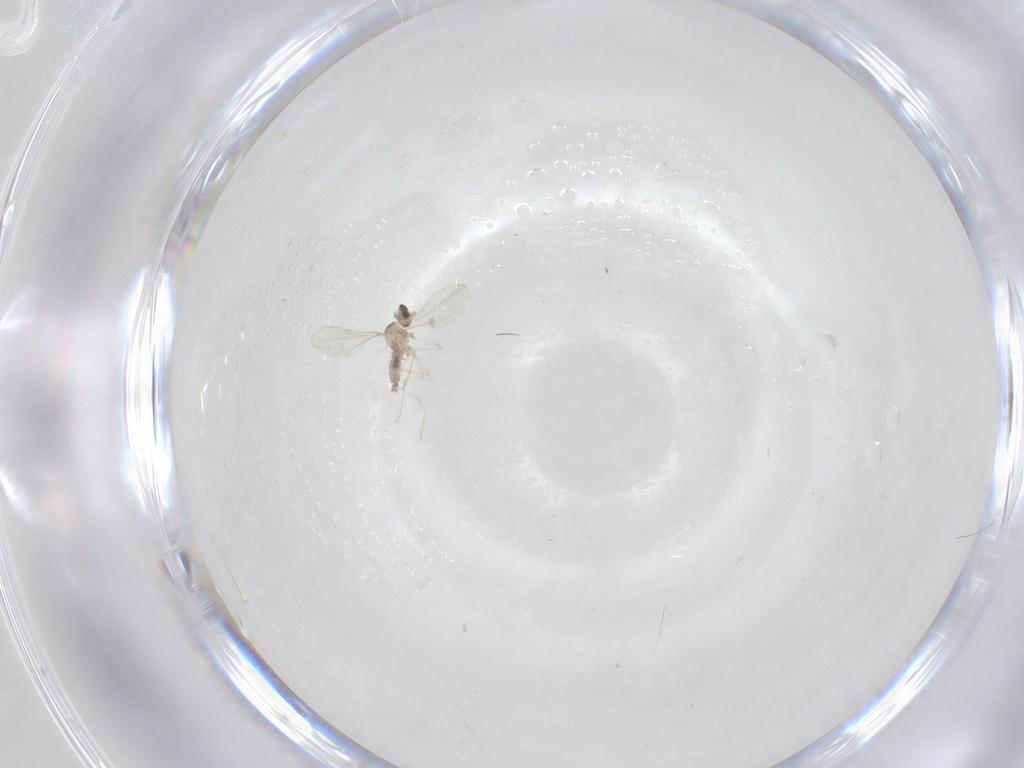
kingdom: Animalia
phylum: Arthropoda
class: Insecta
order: Diptera
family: Cecidomyiidae
